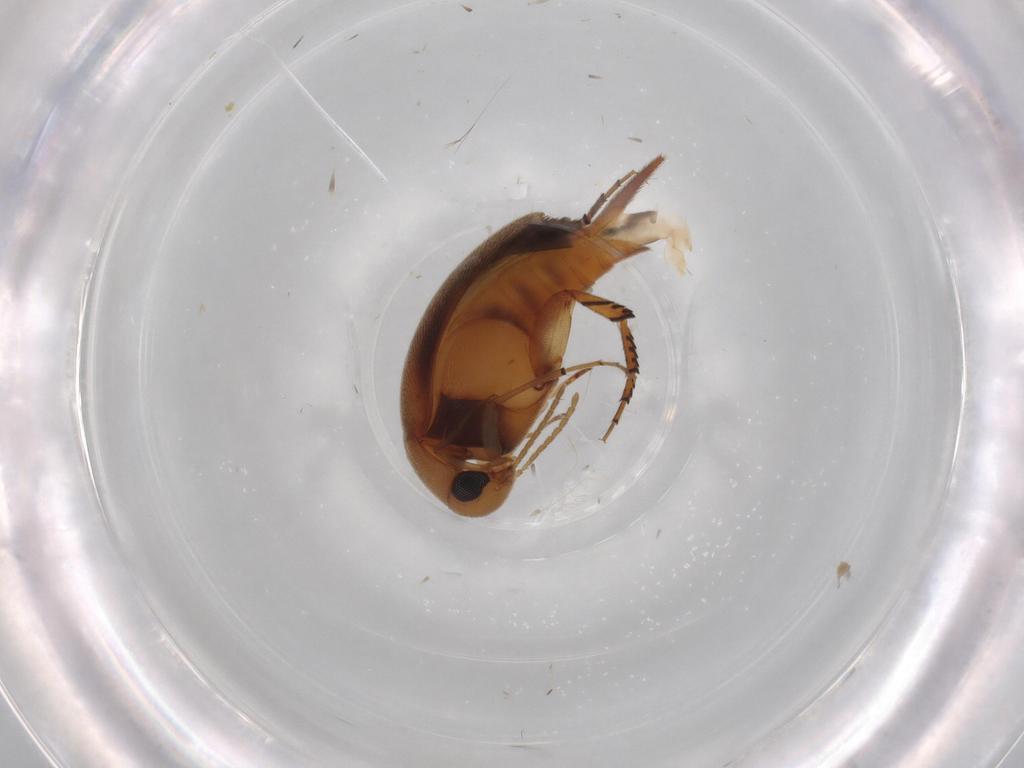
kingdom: Animalia
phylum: Arthropoda
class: Insecta
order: Coleoptera
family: Mordellidae
